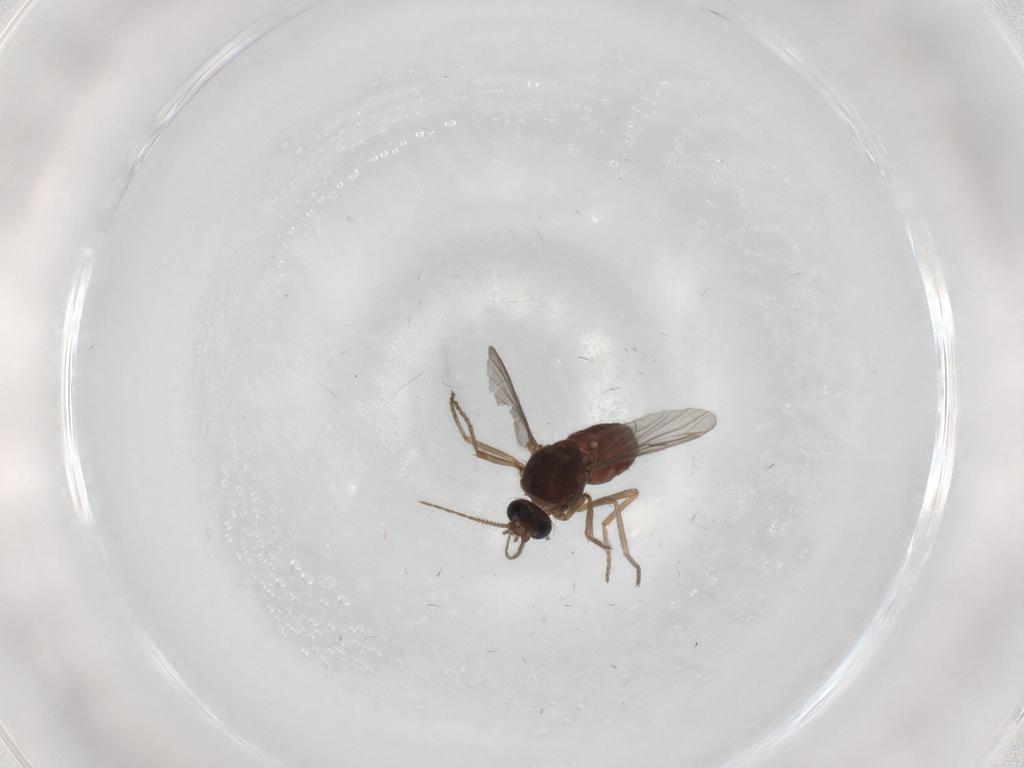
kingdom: Animalia
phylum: Arthropoda
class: Insecta
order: Diptera
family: Ceratopogonidae
